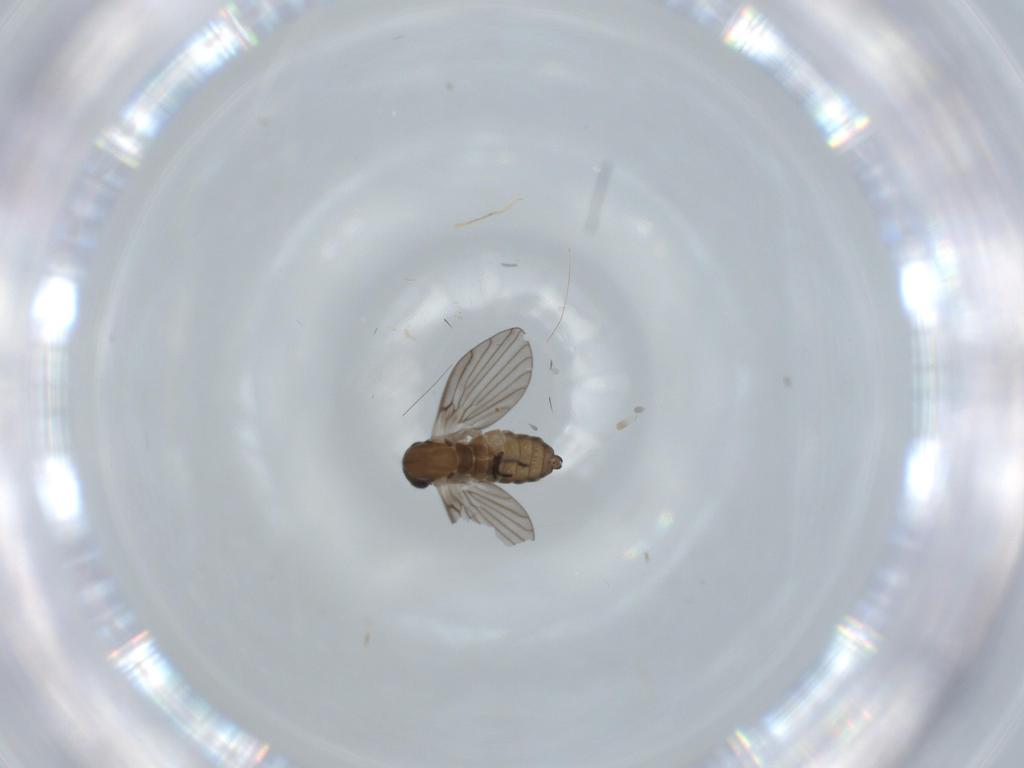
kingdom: Animalia
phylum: Arthropoda
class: Insecta
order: Diptera
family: Psychodidae
